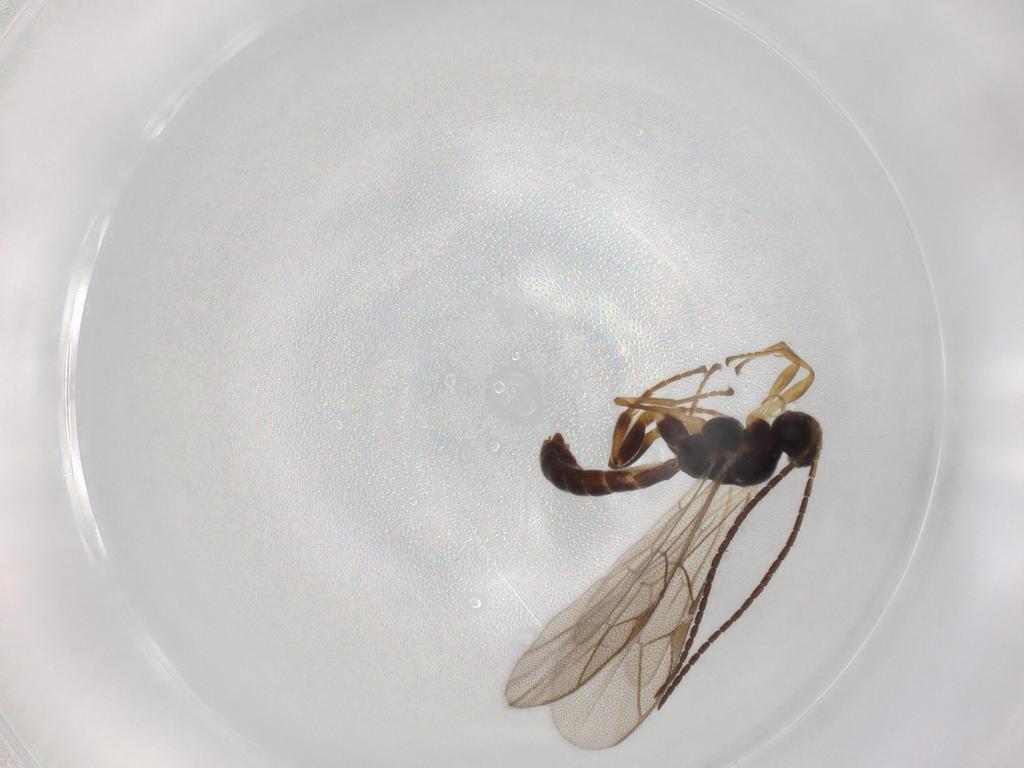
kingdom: Animalia
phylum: Arthropoda
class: Insecta
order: Hymenoptera
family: Ichneumonidae
